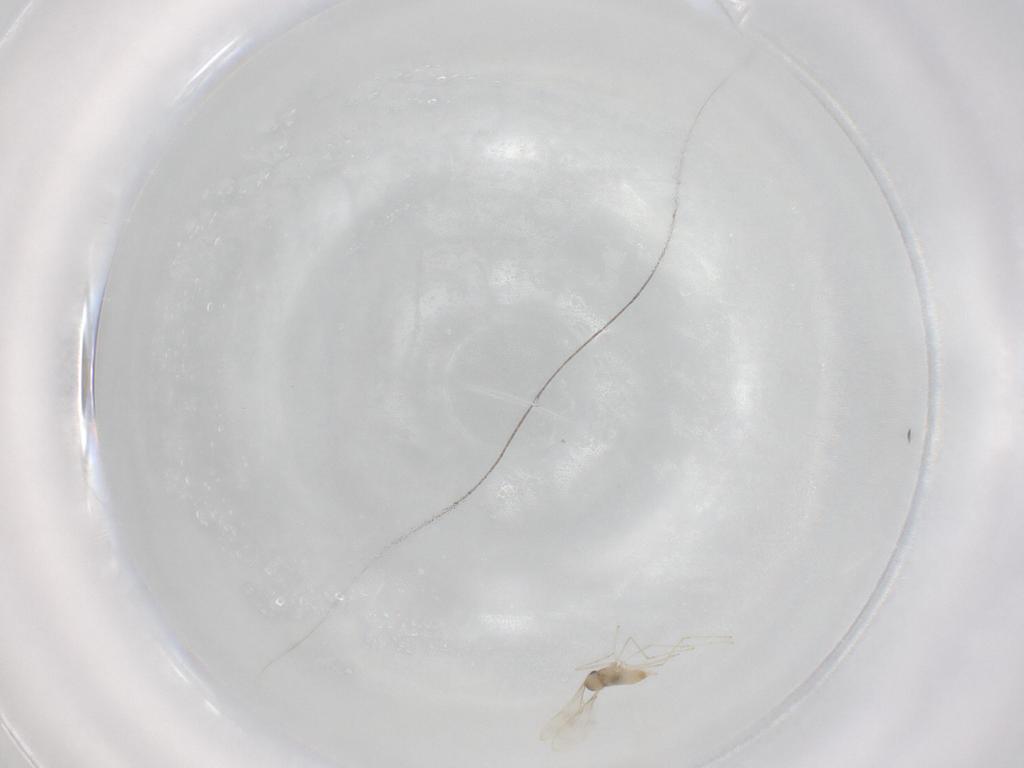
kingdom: Animalia
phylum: Arthropoda
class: Insecta
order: Diptera
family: Cecidomyiidae
